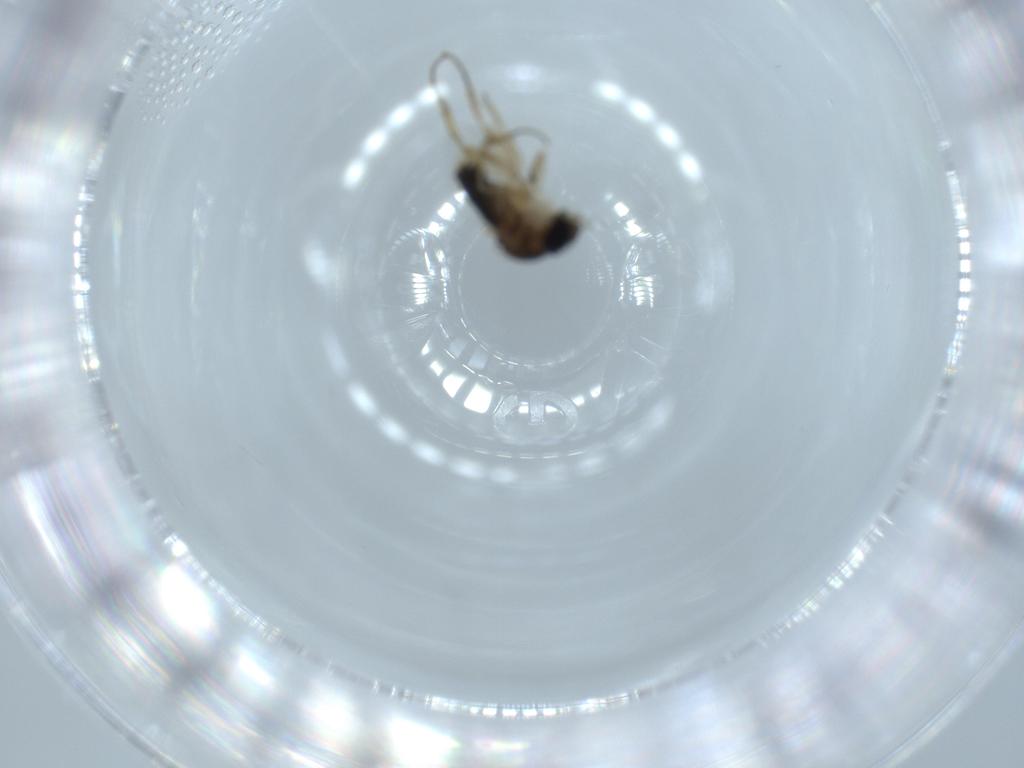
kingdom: Animalia
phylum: Arthropoda
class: Insecta
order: Diptera
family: Phoridae
